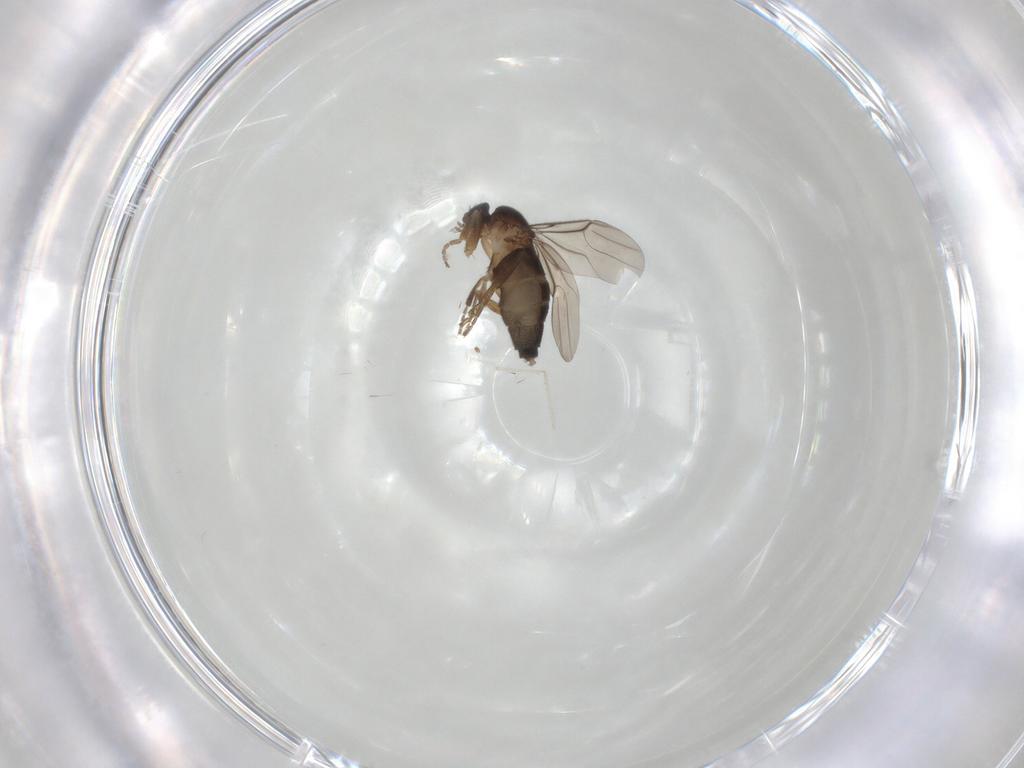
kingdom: Animalia
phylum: Arthropoda
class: Insecta
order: Diptera
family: Phoridae
